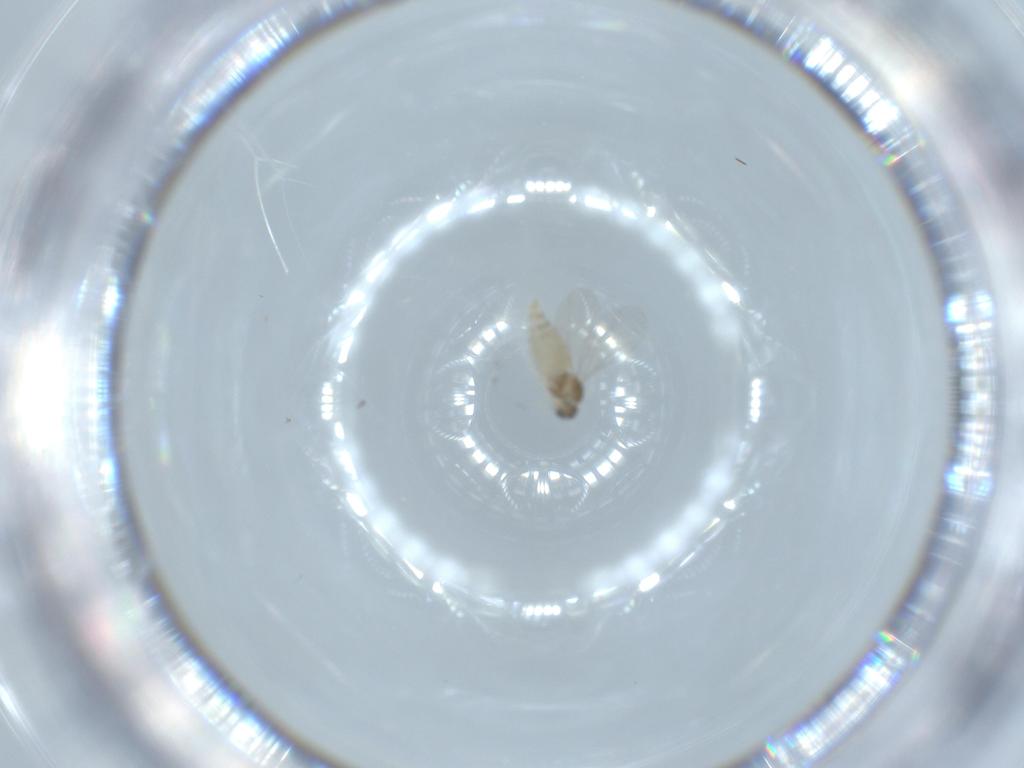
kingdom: Animalia
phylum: Arthropoda
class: Insecta
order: Diptera
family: Cecidomyiidae
